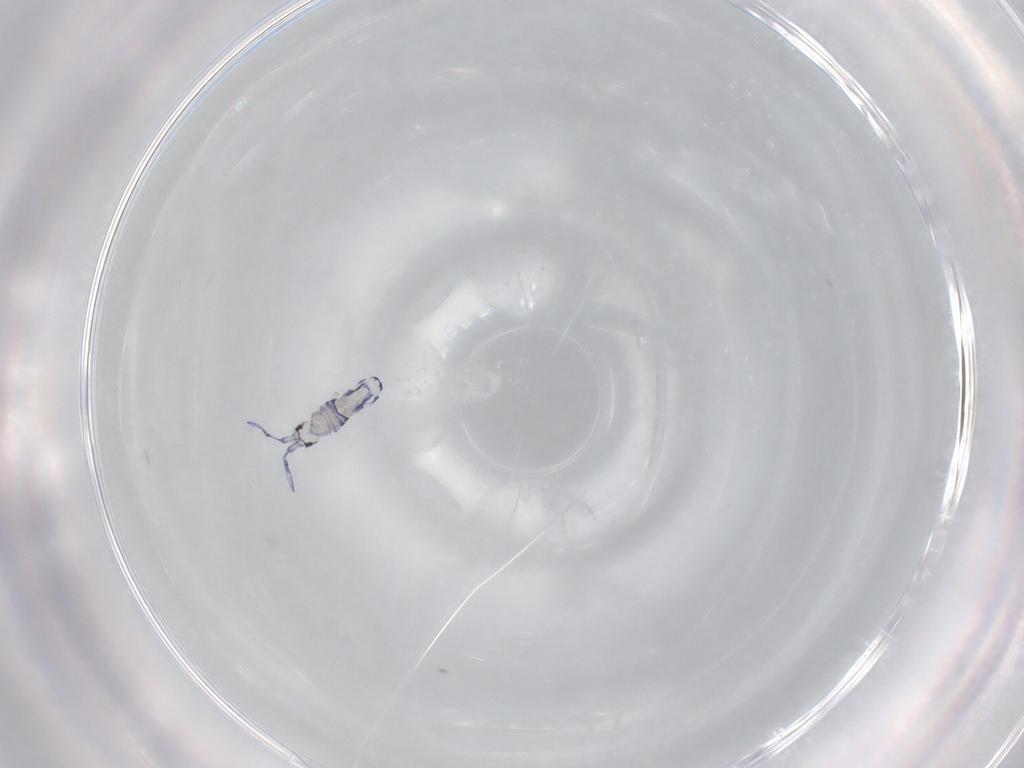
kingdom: Animalia
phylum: Arthropoda
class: Collembola
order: Entomobryomorpha
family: Entomobryidae
